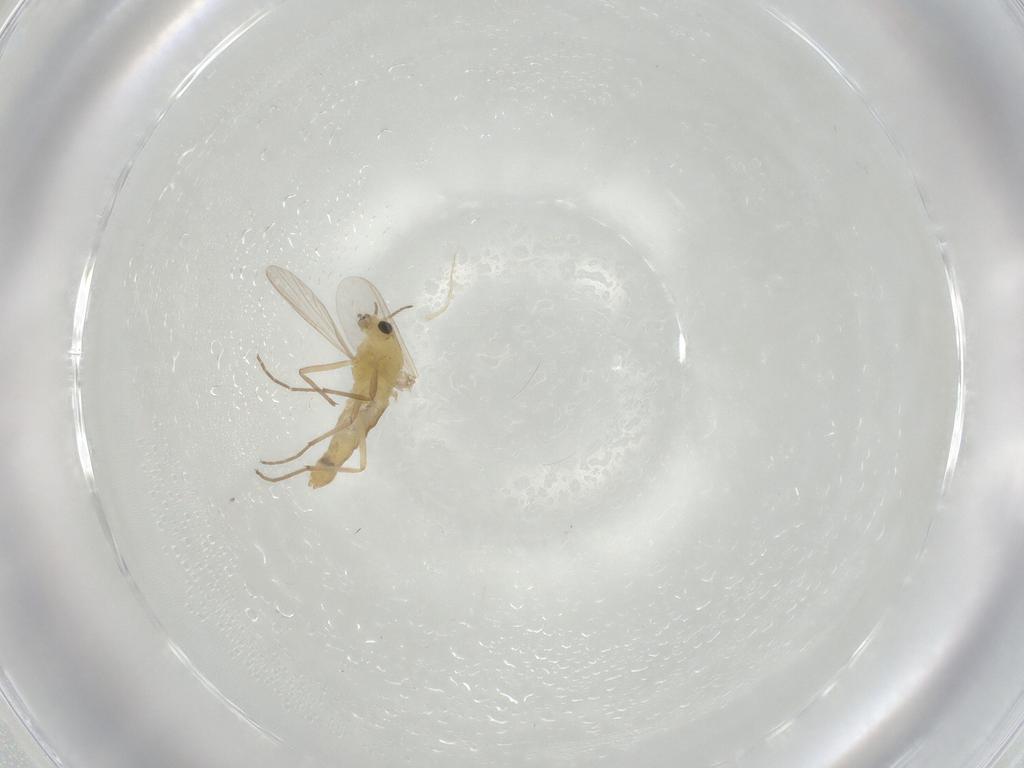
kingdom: Animalia
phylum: Arthropoda
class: Insecta
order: Diptera
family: Chironomidae
